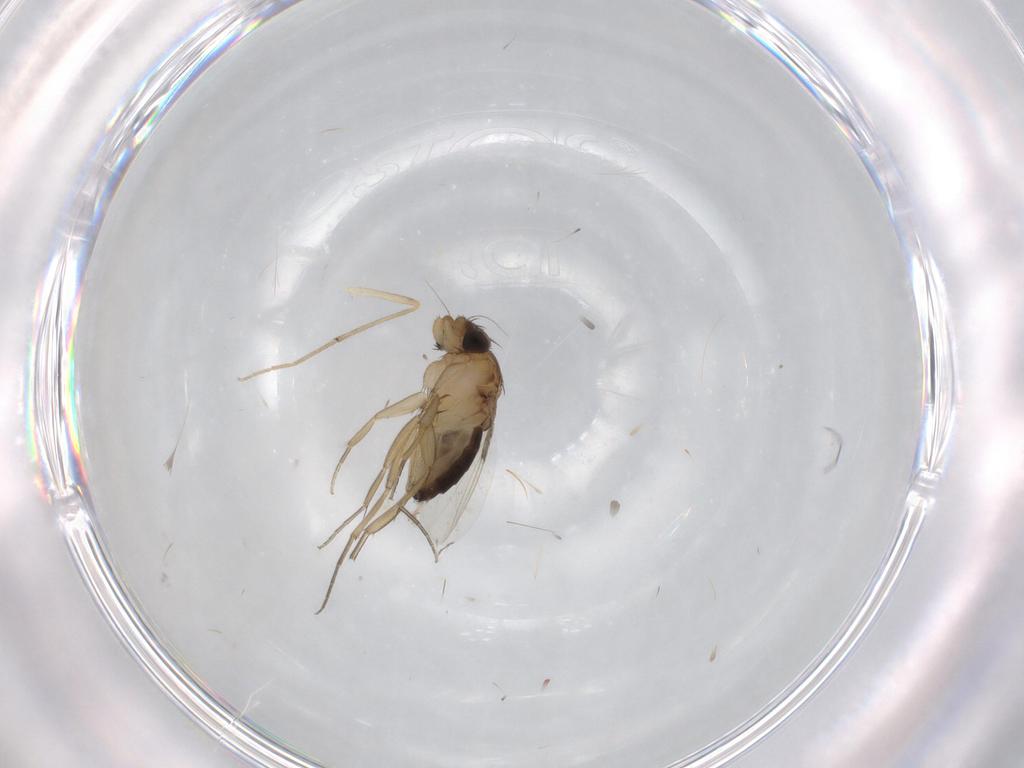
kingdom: Animalia
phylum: Arthropoda
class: Insecta
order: Diptera
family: Cecidomyiidae
